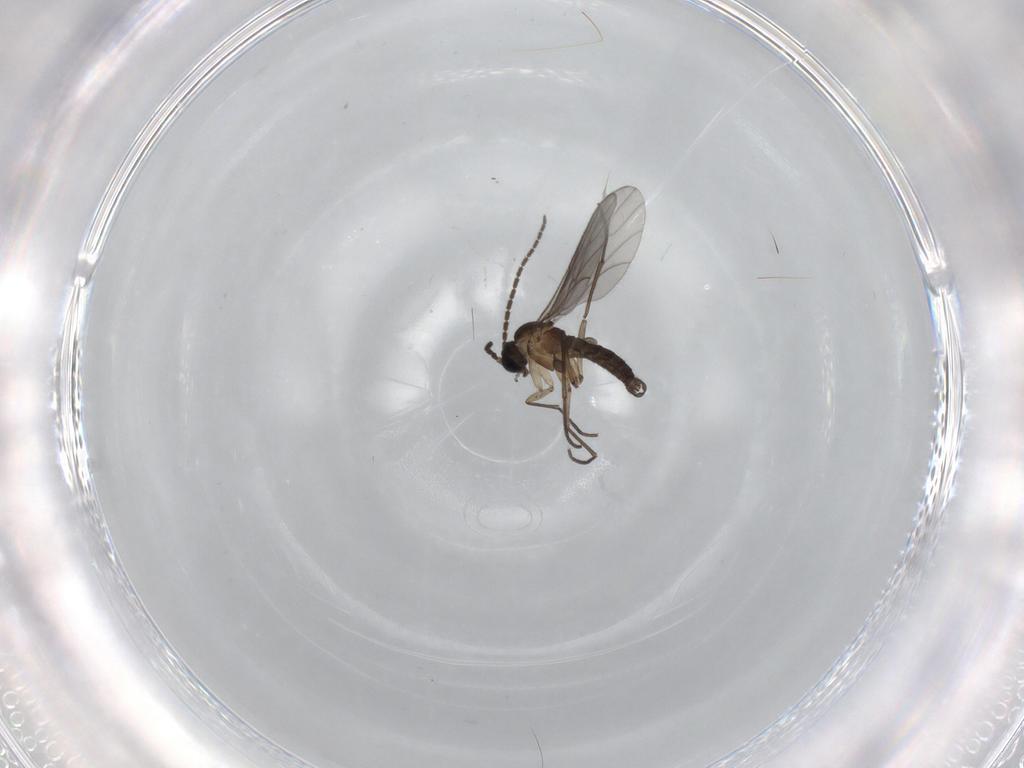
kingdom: Animalia
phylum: Arthropoda
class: Insecta
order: Diptera
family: Sciaridae
